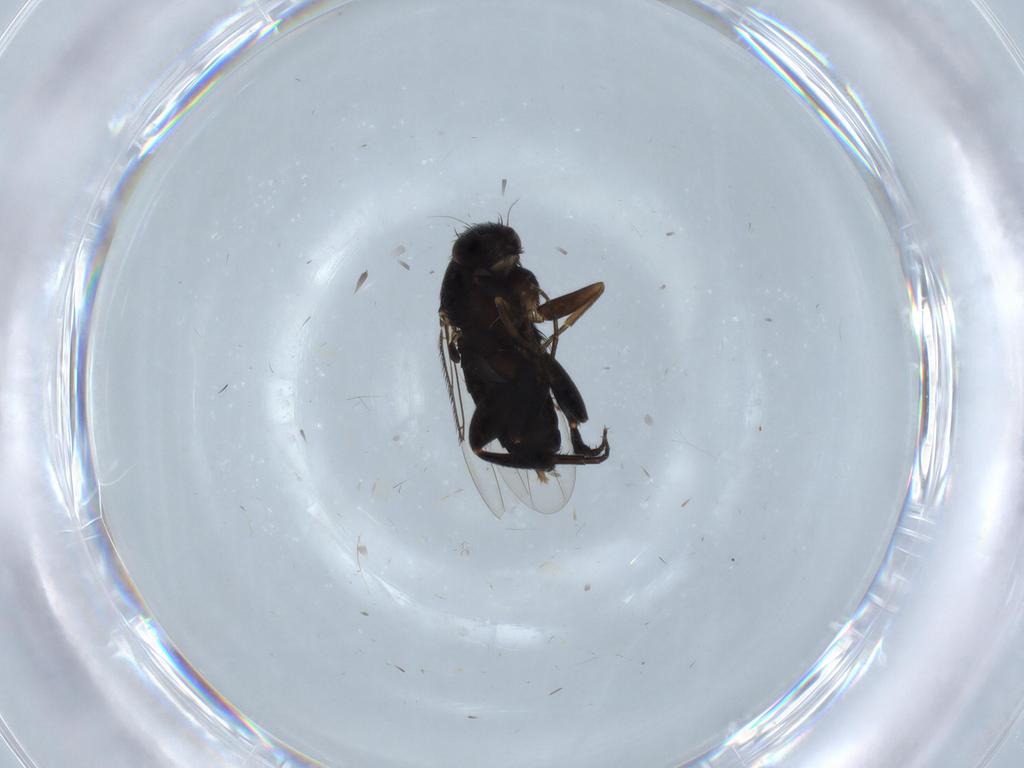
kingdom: Animalia
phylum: Arthropoda
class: Insecta
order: Diptera
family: Phoridae
